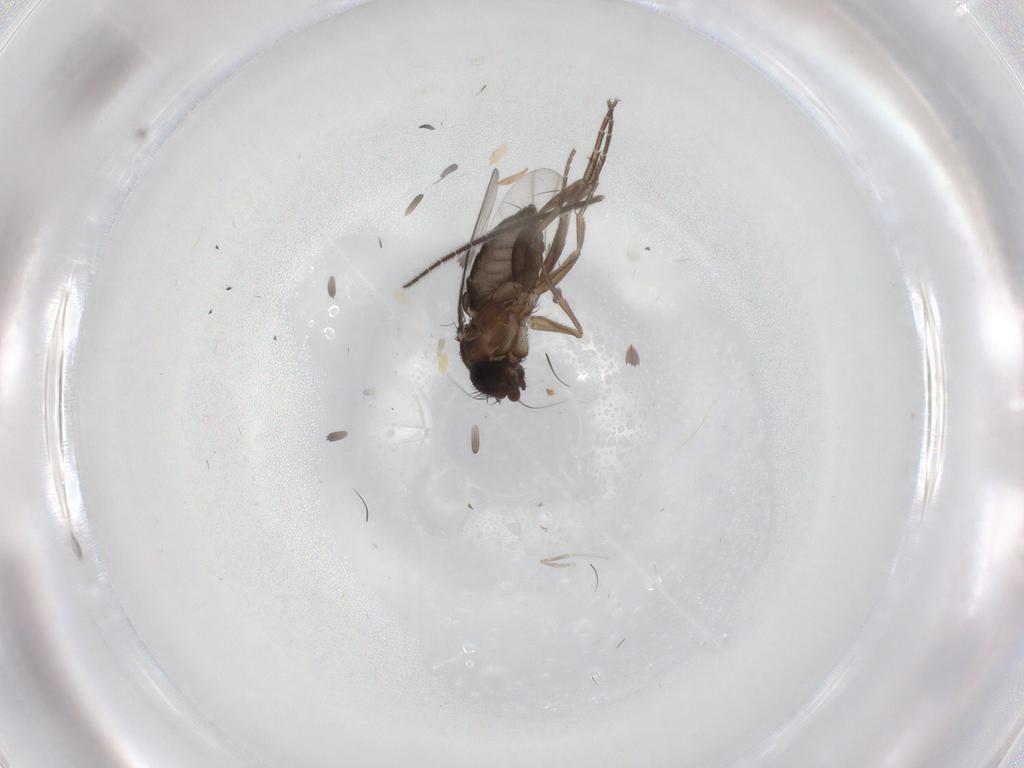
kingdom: Animalia
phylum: Arthropoda
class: Insecta
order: Diptera
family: Phoridae
